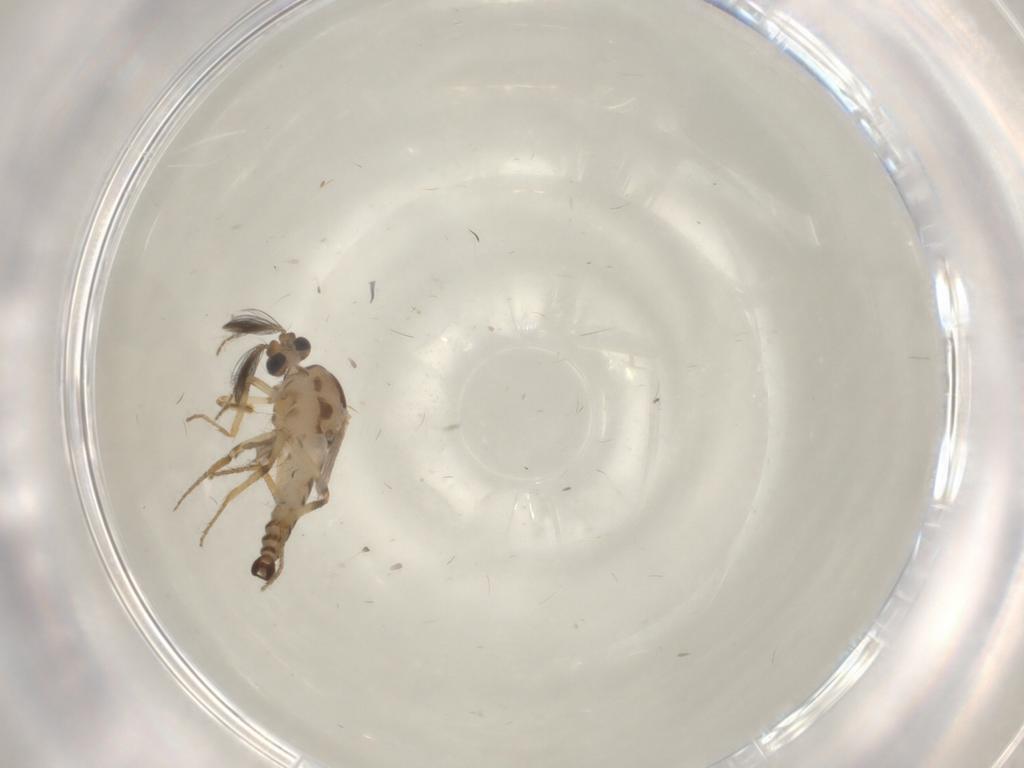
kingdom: Animalia
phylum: Arthropoda
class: Insecta
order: Diptera
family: Ceratopogonidae
